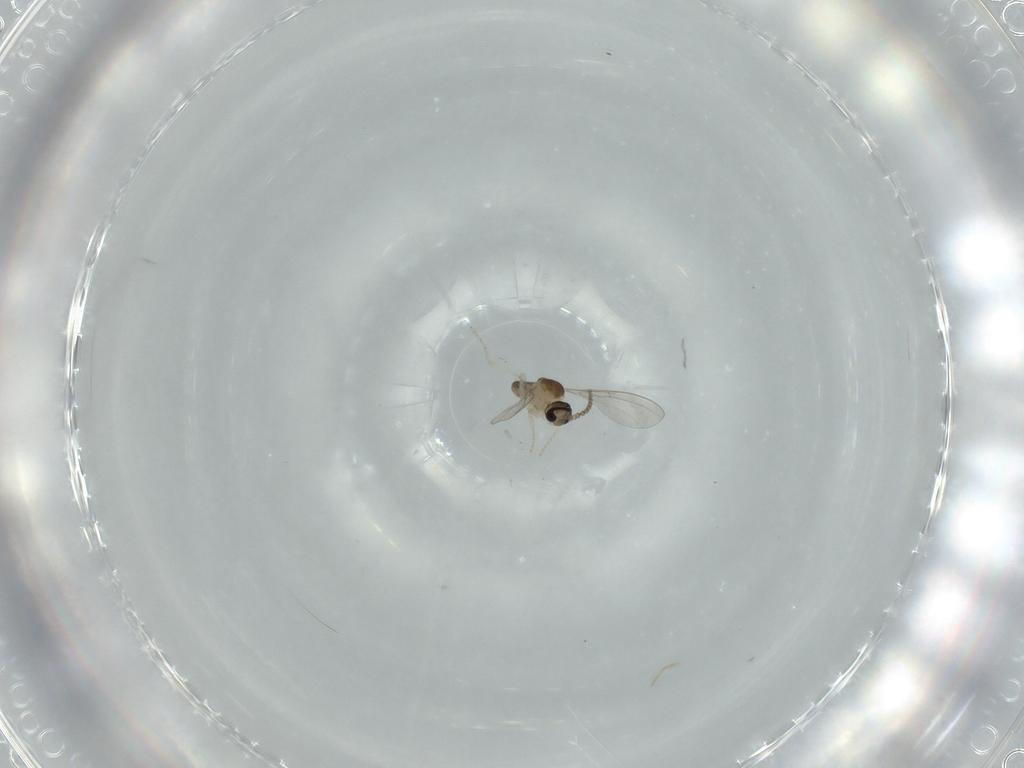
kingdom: Animalia
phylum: Arthropoda
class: Insecta
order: Diptera
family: Cecidomyiidae
